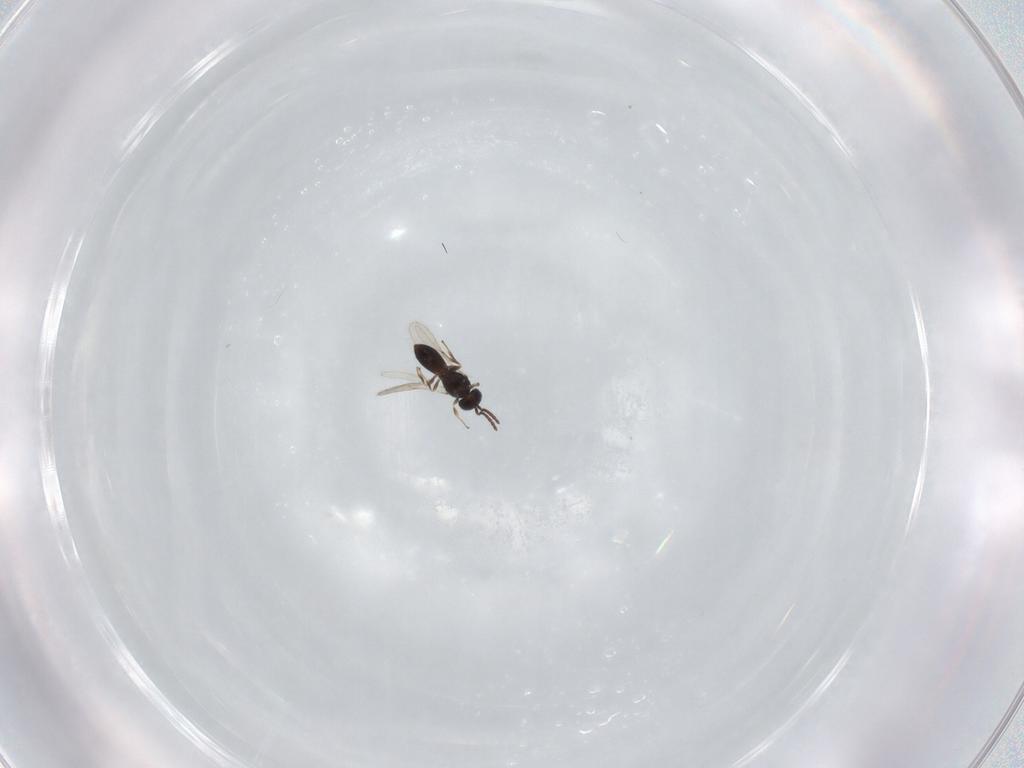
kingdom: Animalia
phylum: Arthropoda
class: Insecta
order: Hymenoptera
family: Scelionidae
